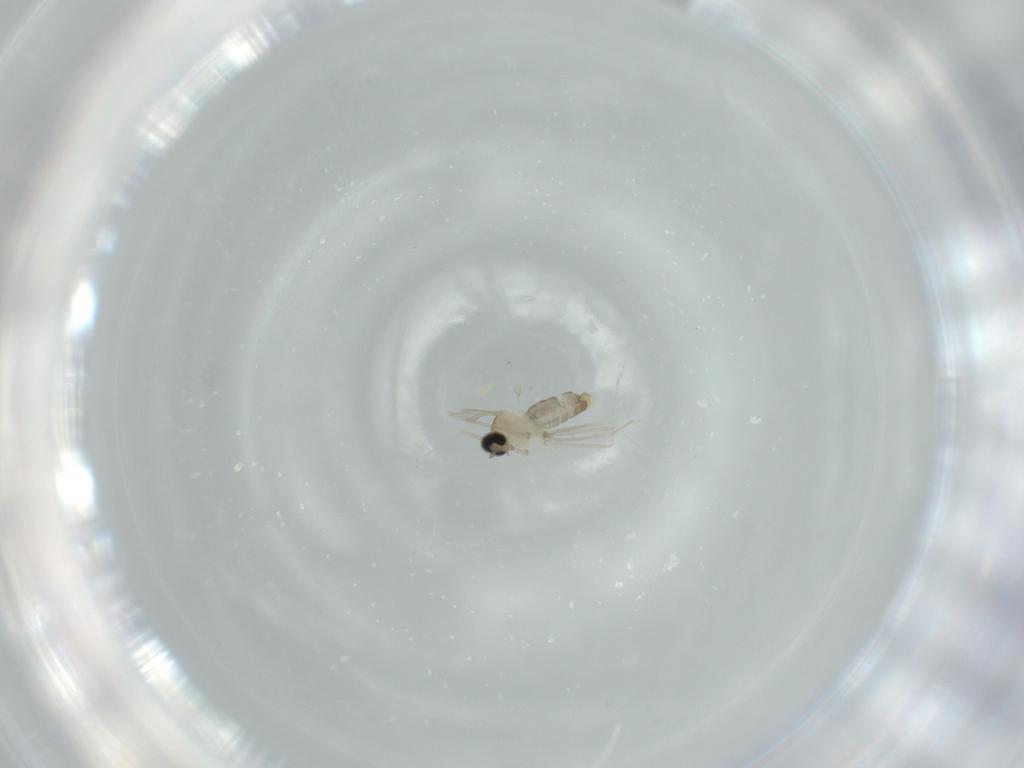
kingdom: Animalia
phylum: Arthropoda
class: Insecta
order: Diptera
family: Cecidomyiidae
